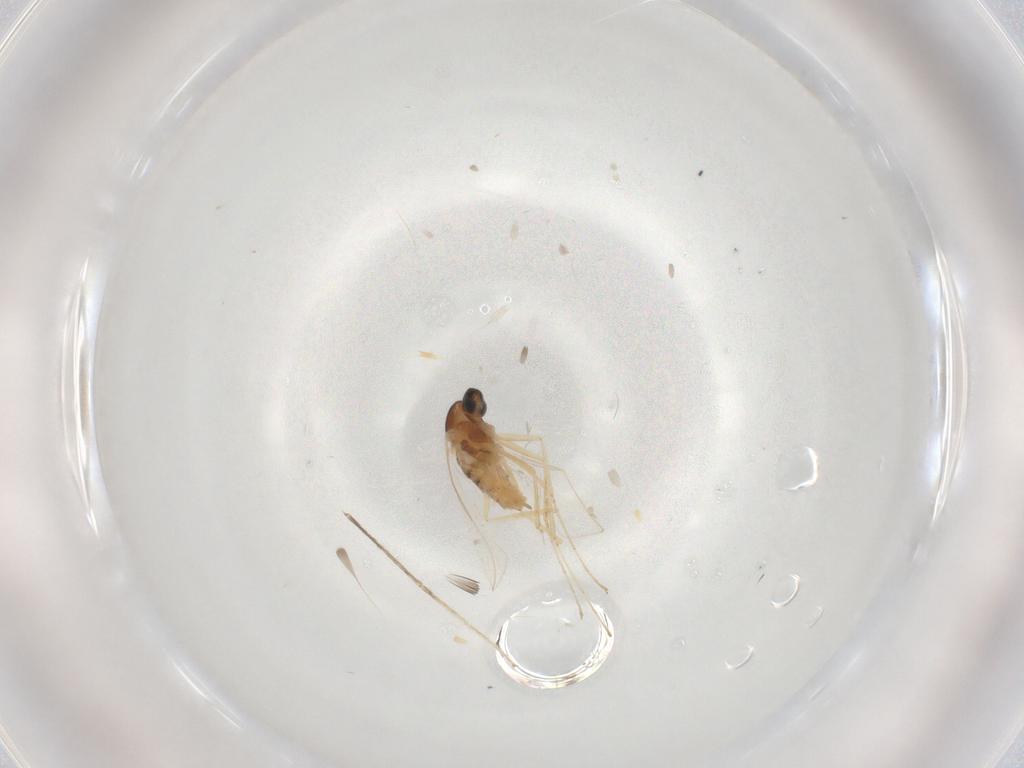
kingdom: Animalia
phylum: Arthropoda
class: Insecta
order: Diptera
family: Cecidomyiidae
